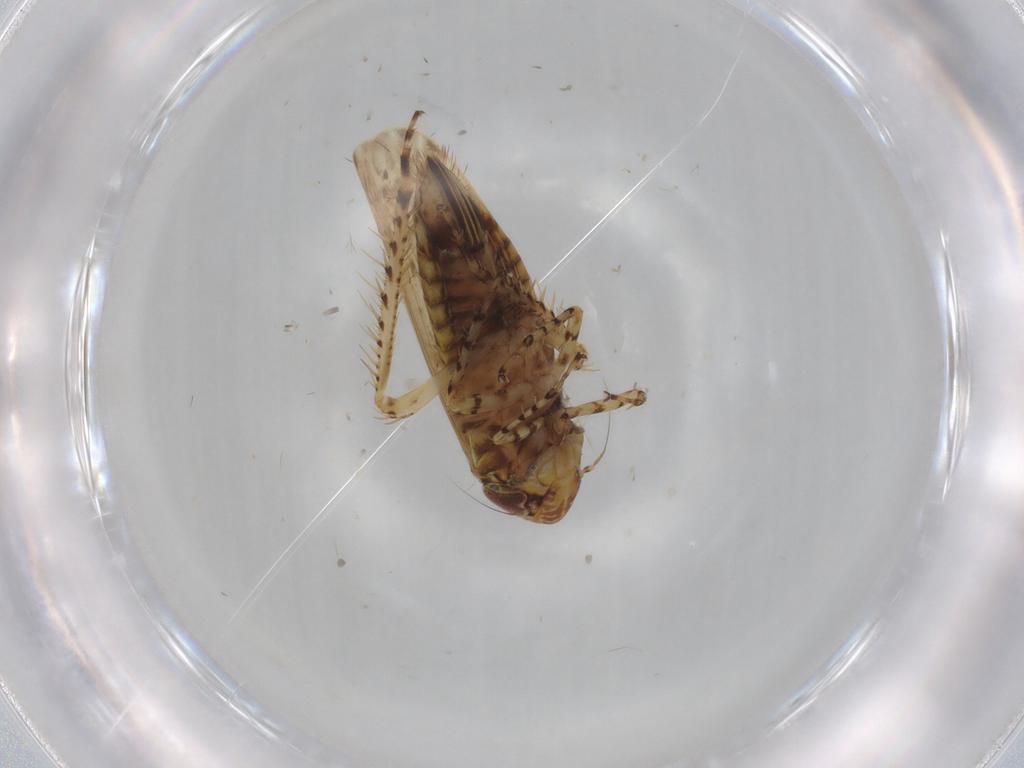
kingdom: Animalia
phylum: Arthropoda
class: Insecta
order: Hemiptera
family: Cicadellidae
